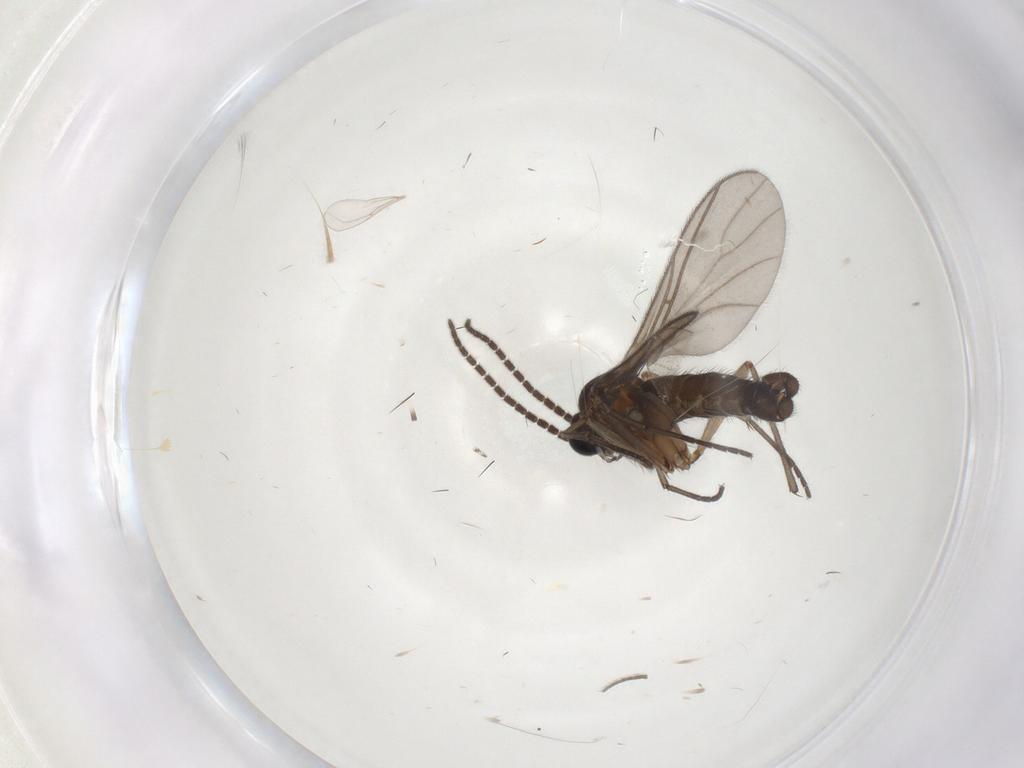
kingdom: Animalia
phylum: Arthropoda
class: Insecta
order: Diptera
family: Sciaridae
